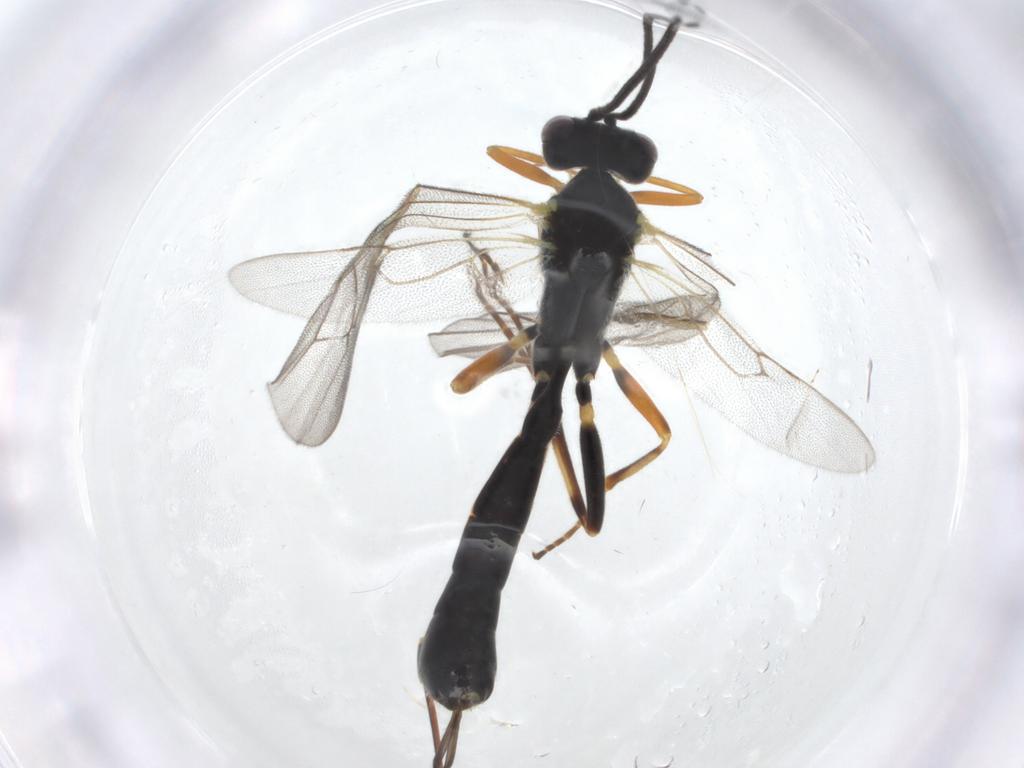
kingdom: Animalia
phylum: Arthropoda
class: Insecta
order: Hymenoptera
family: Ichneumonidae
